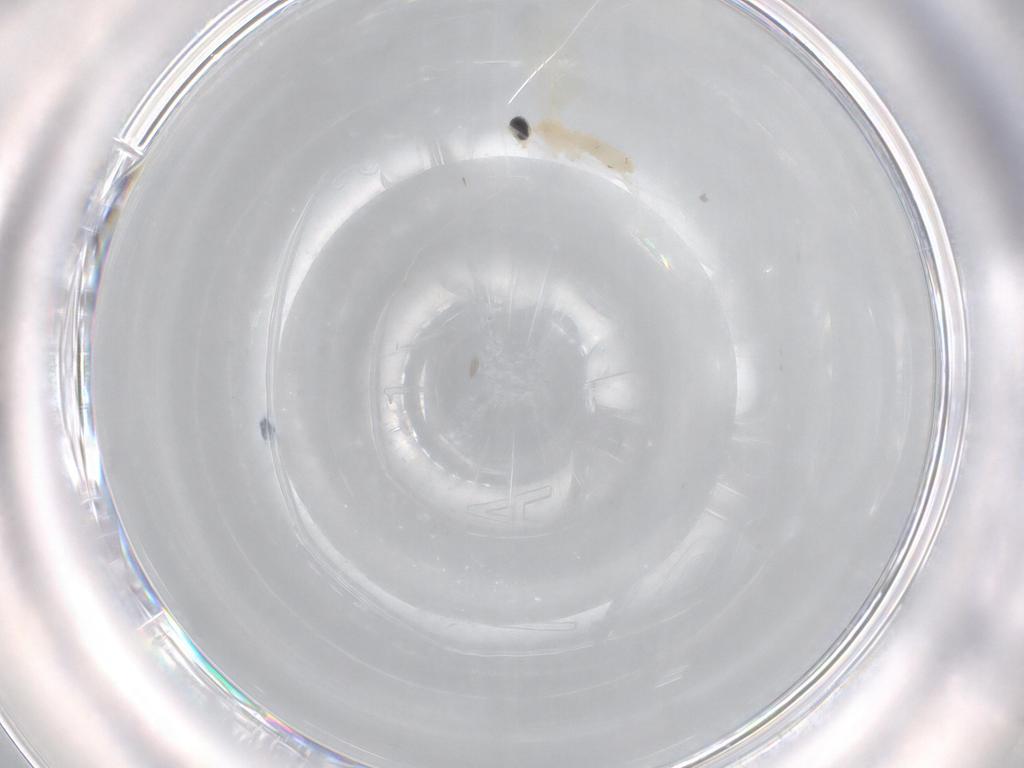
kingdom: Animalia
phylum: Arthropoda
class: Insecta
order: Diptera
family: Cecidomyiidae
